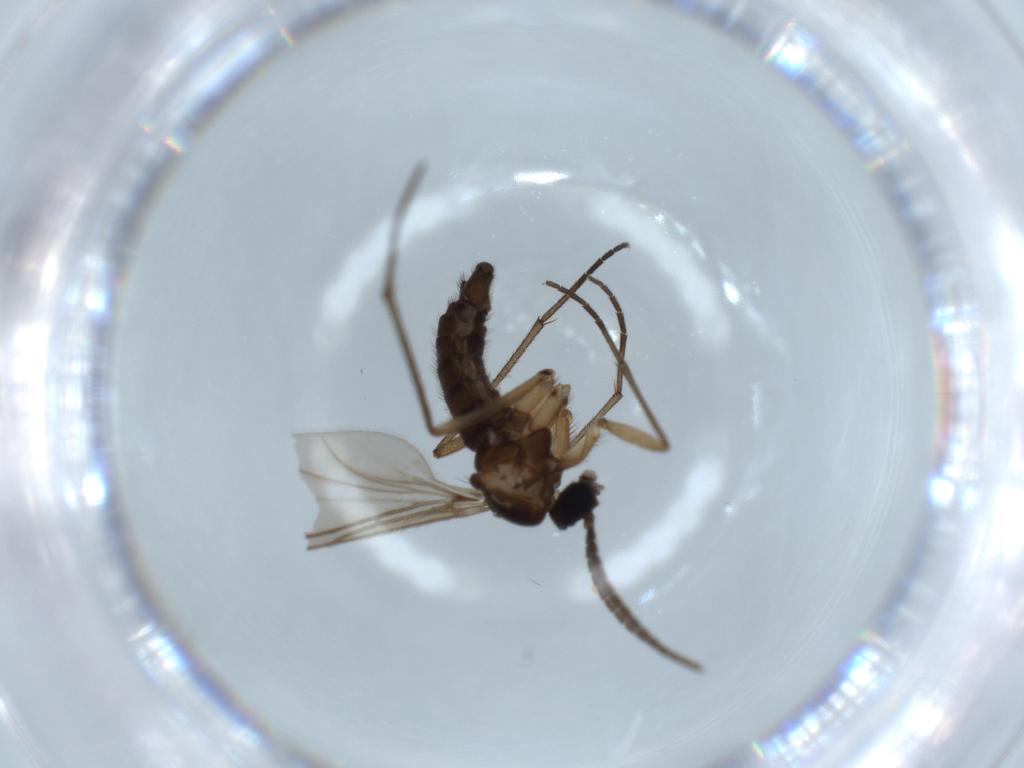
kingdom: Animalia
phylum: Arthropoda
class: Insecta
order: Diptera
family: Sciaridae
